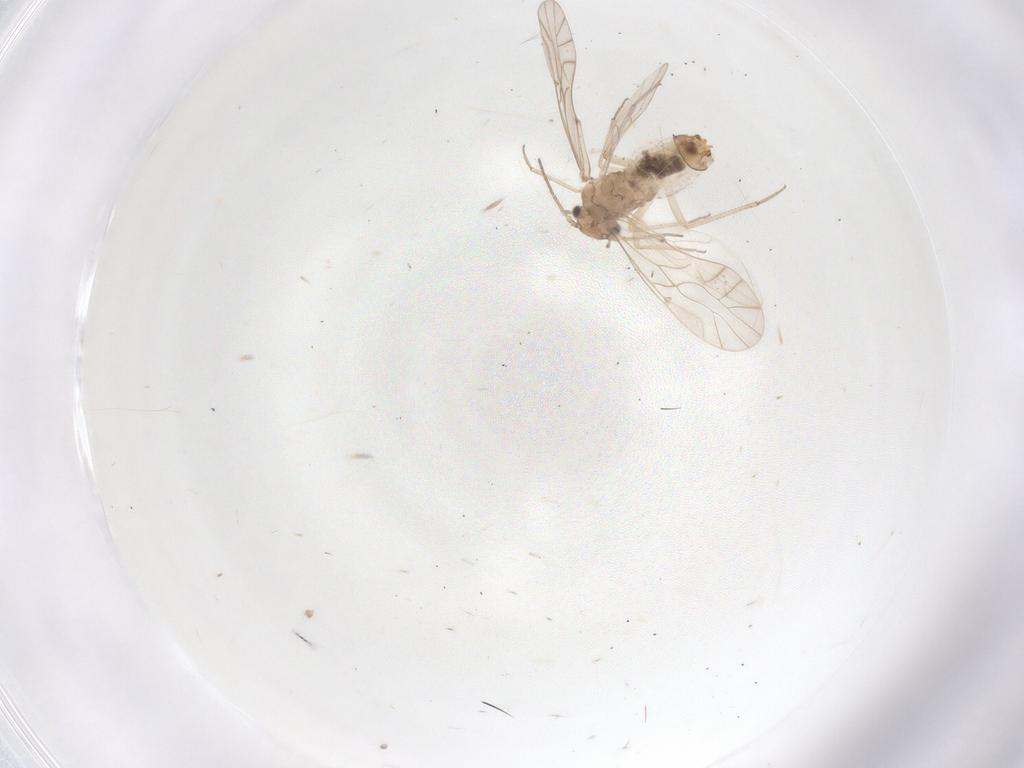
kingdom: Animalia
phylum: Arthropoda
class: Insecta
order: Psocodea
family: Lachesillidae
